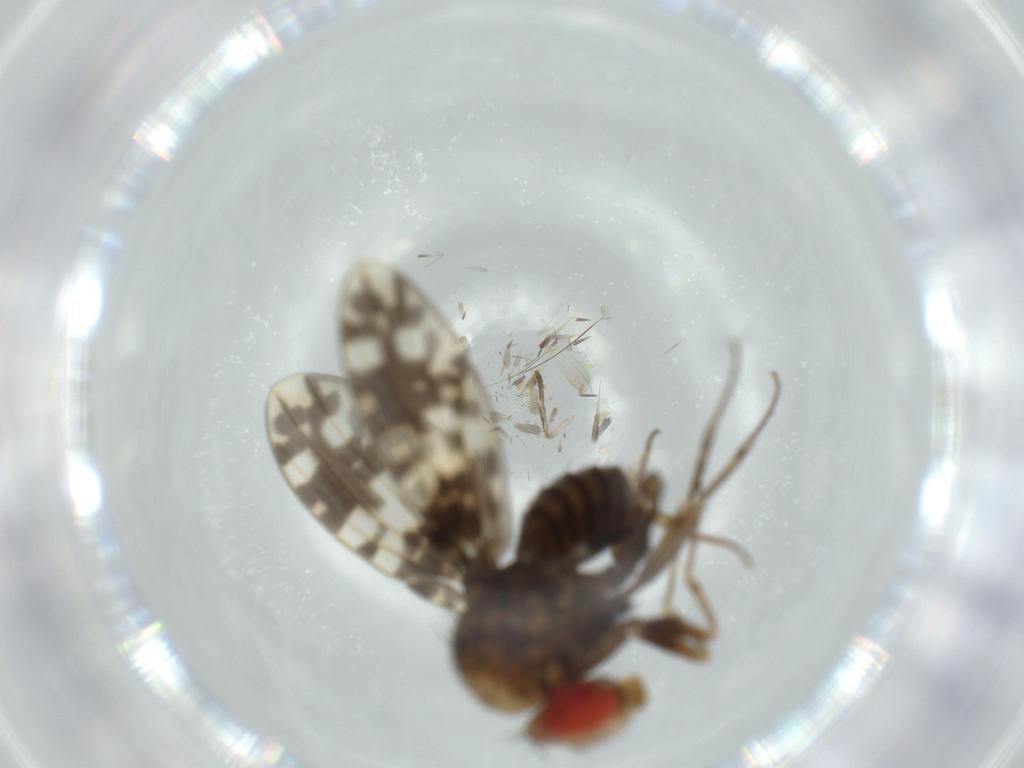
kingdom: Animalia
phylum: Arthropoda
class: Insecta
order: Diptera
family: Drosophilidae
